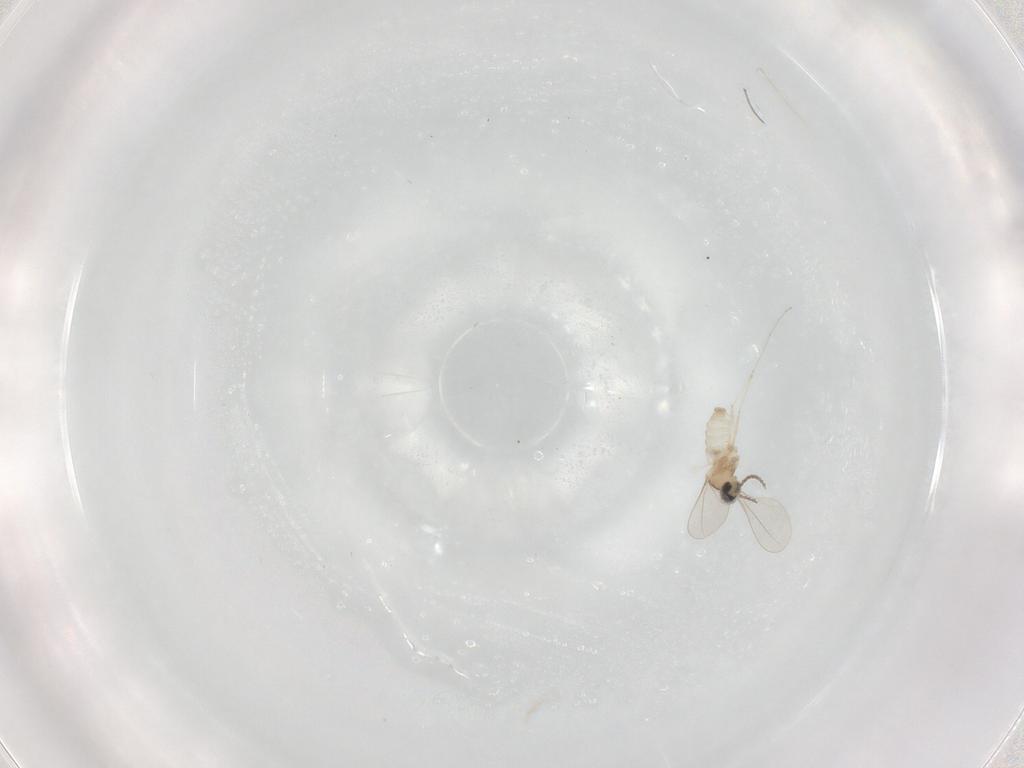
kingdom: Animalia
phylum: Arthropoda
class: Insecta
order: Diptera
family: Cecidomyiidae
